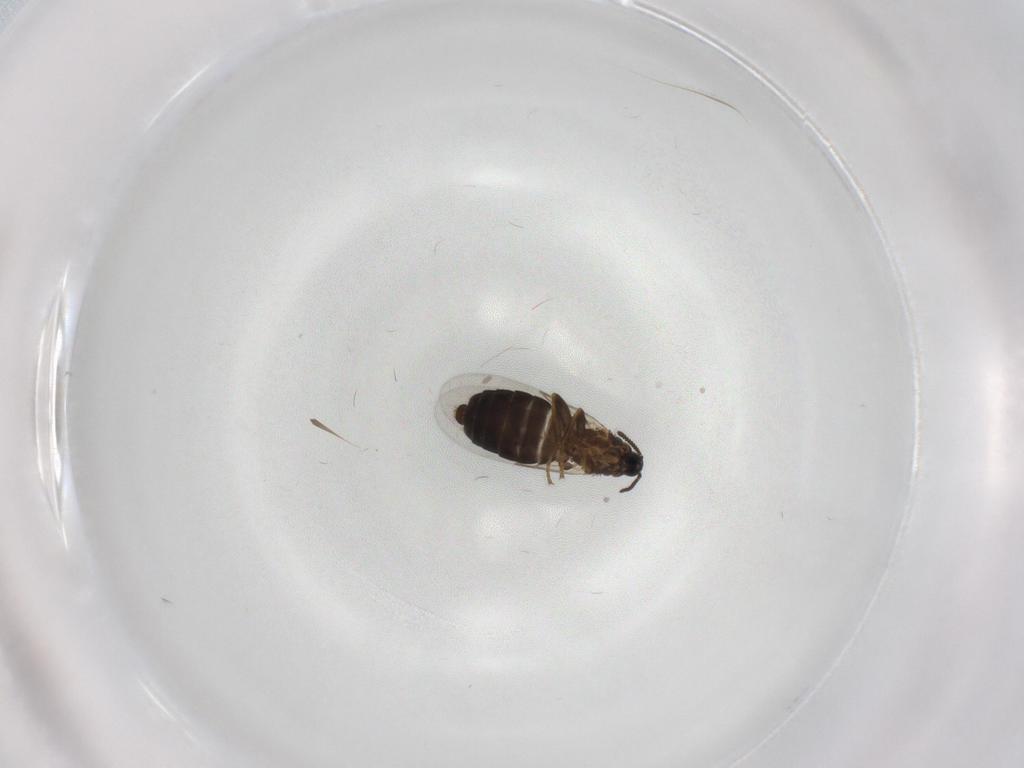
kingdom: Animalia
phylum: Arthropoda
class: Insecta
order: Diptera
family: Scatopsidae
